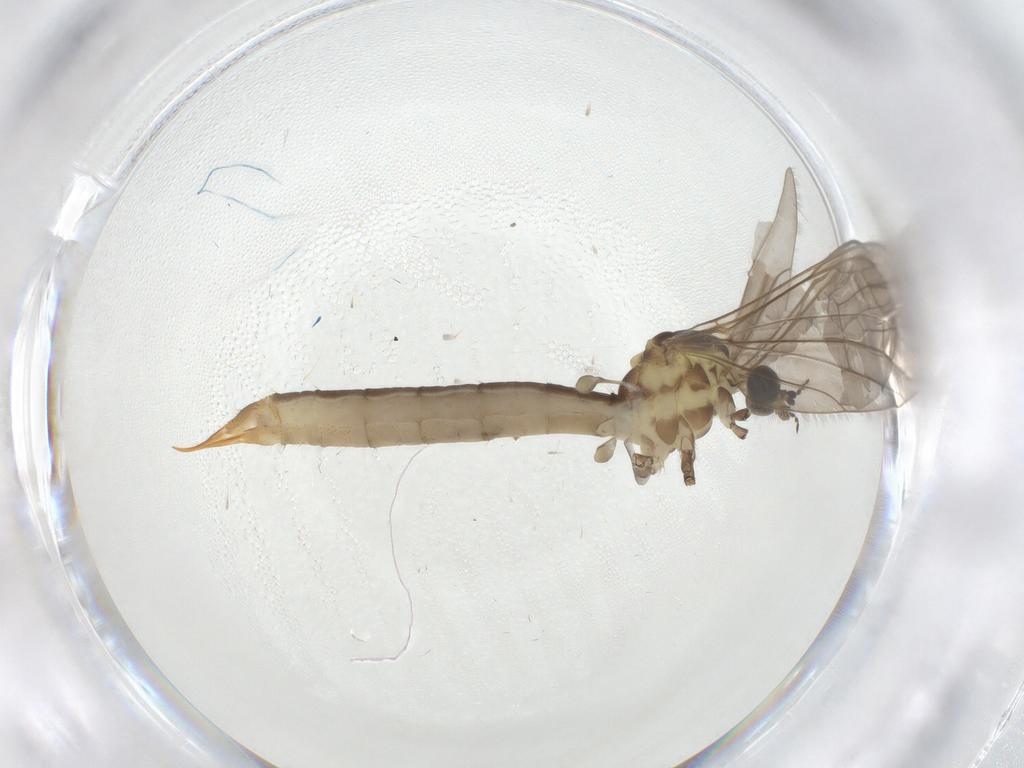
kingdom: Animalia
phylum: Arthropoda
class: Insecta
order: Diptera
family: Limoniidae
